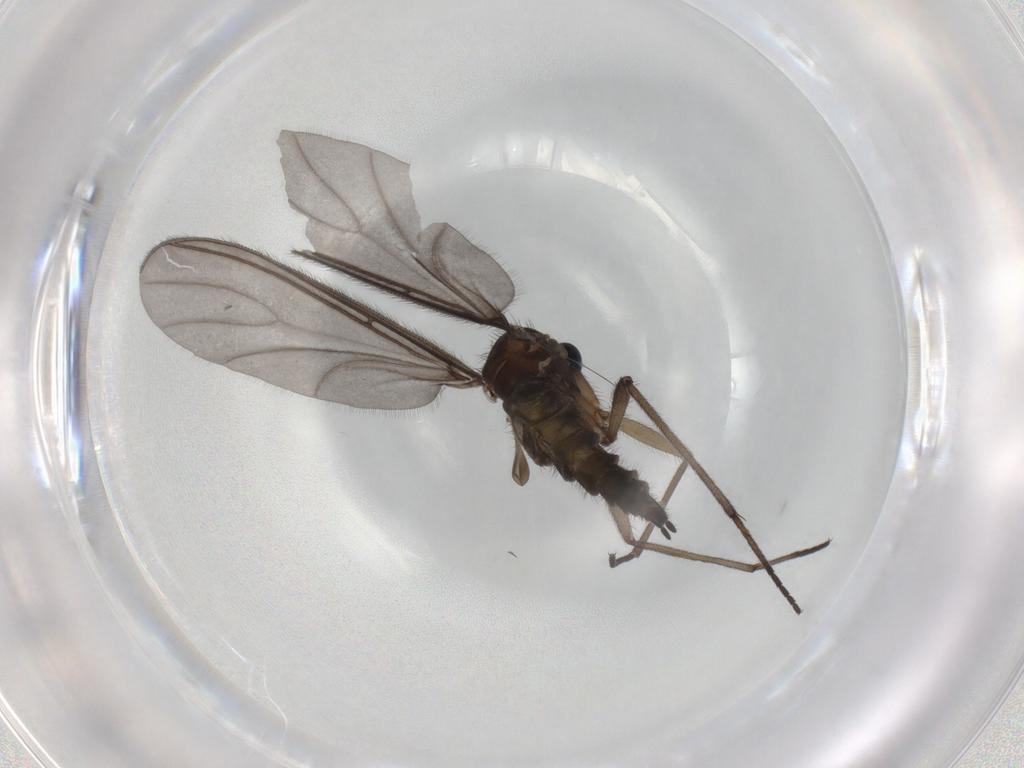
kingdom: Animalia
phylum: Arthropoda
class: Insecta
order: Diptera
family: Sciaridae
